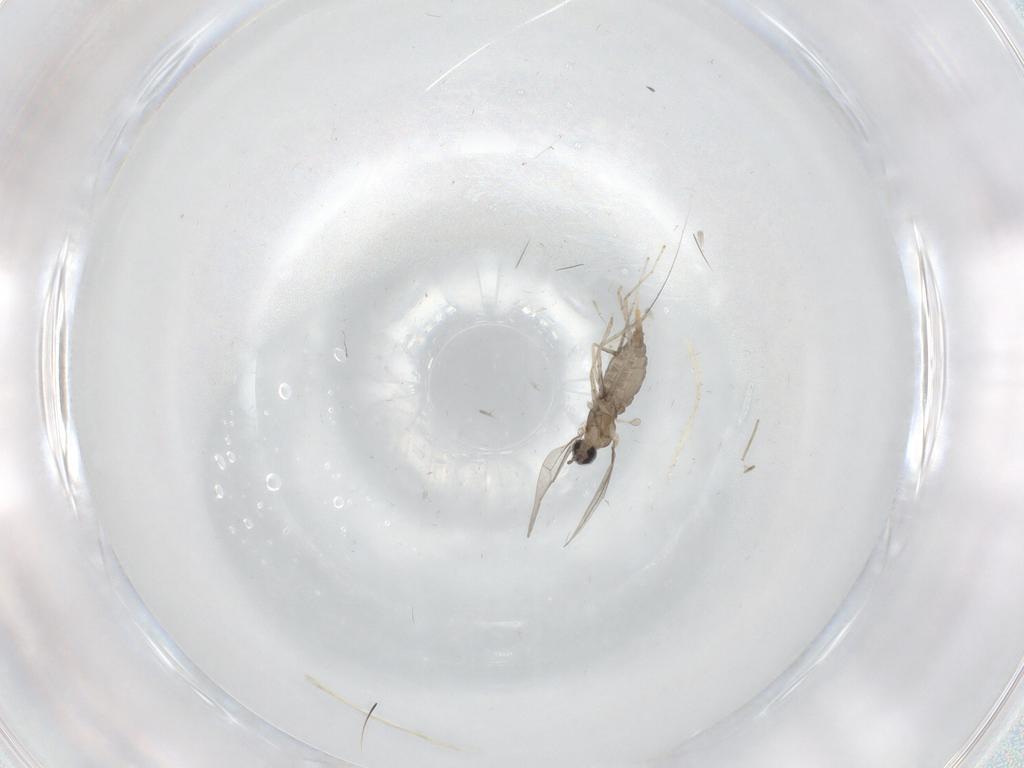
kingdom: Animalia
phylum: Arthropoda
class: Insecta
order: Diptera
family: Cecidomyiidae
